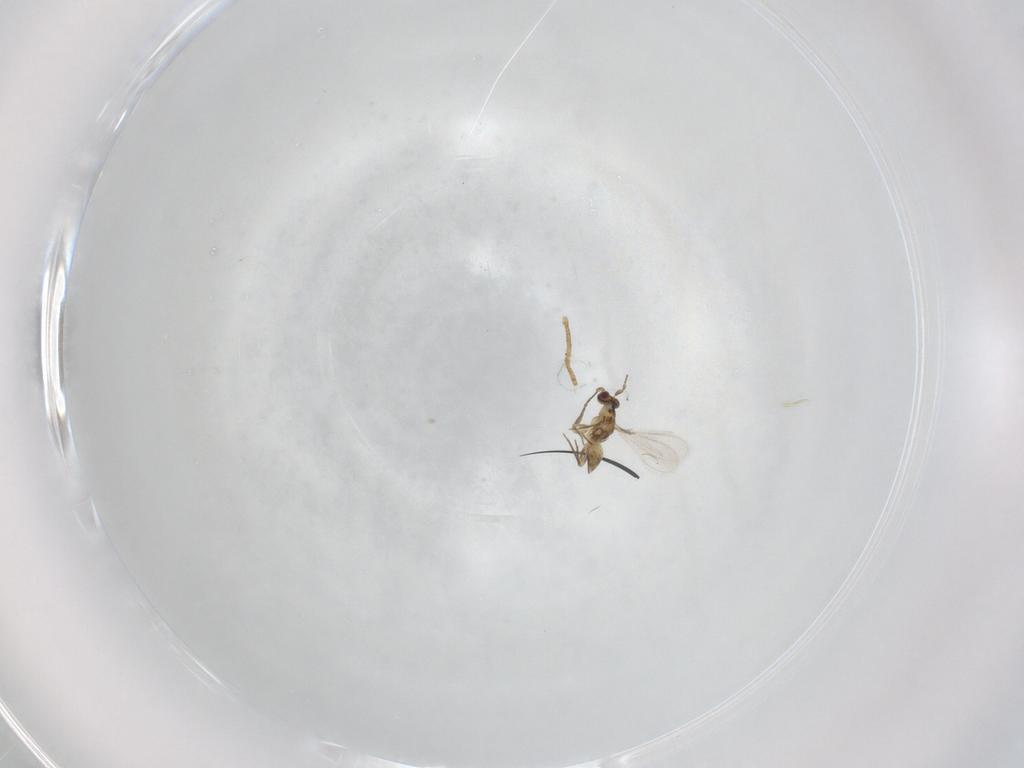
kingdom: Animalia
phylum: Arthropoda
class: Insecta
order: Hymenoptera
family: Mymaridae
